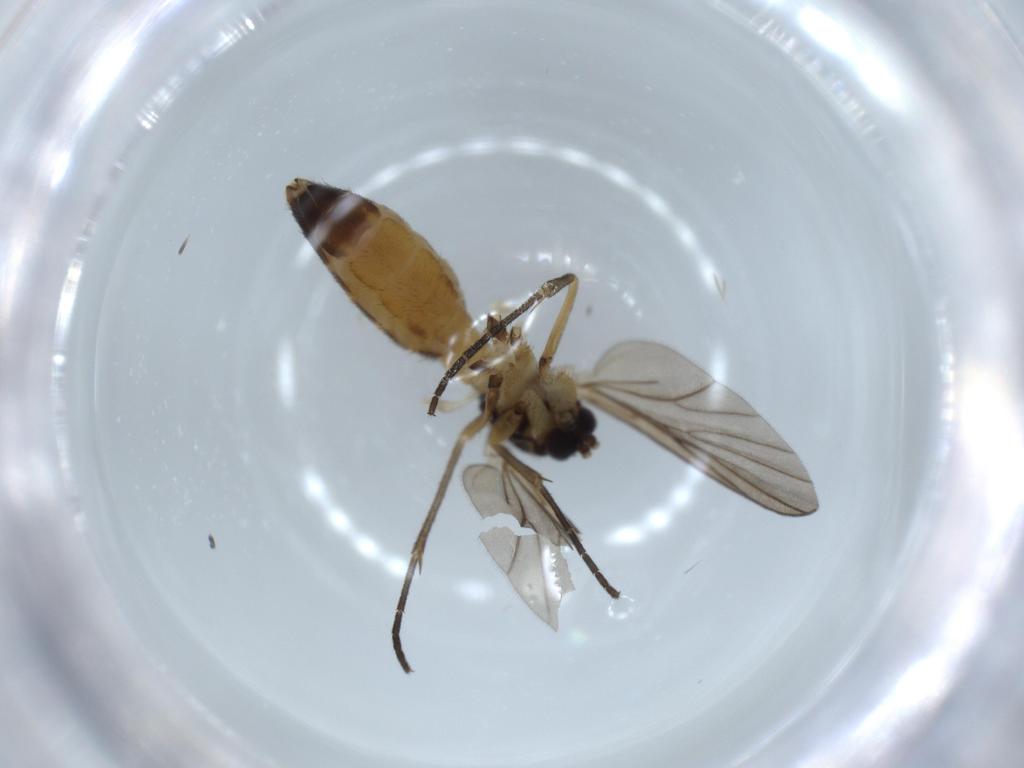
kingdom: Animalia
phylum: Arthropoda
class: Insecta
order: Diptera
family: Mycetophilidae
